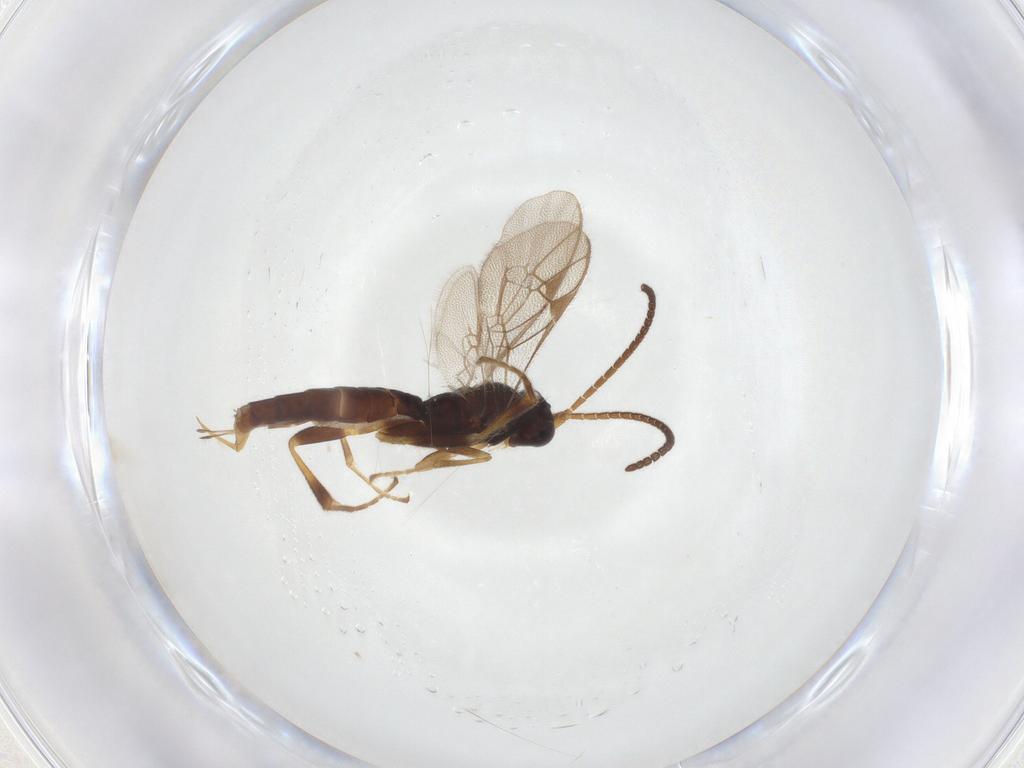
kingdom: Animalia
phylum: Arthropoda
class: Insecta
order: Hymenoptera
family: Ichneumonidae
